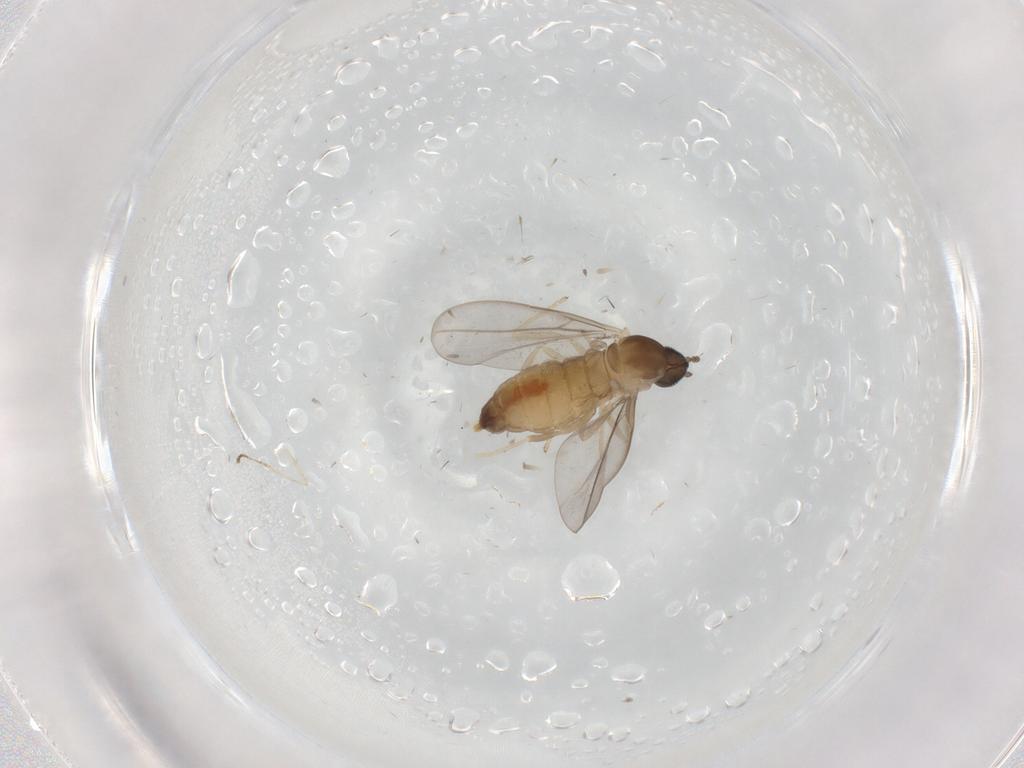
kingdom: Animalia
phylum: Arthropoda
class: Insecta
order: Diptera
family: Cecidomyiidae
